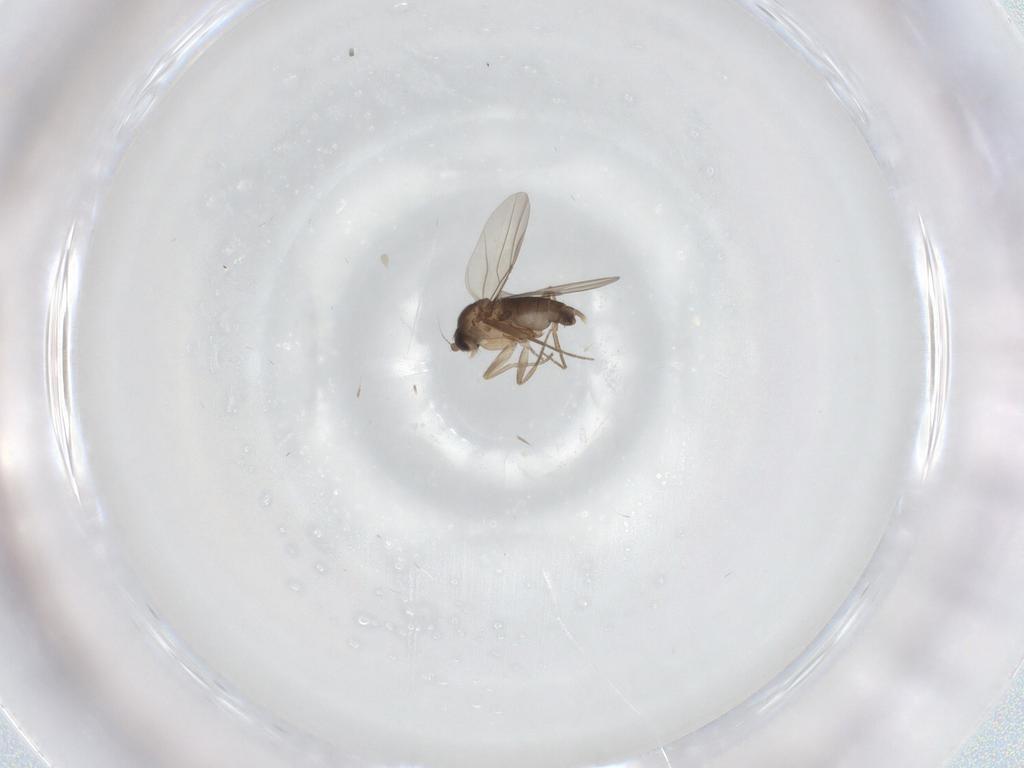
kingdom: Animalia
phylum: Arthropoda
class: Insecta
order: Diptera
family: Phoridae
